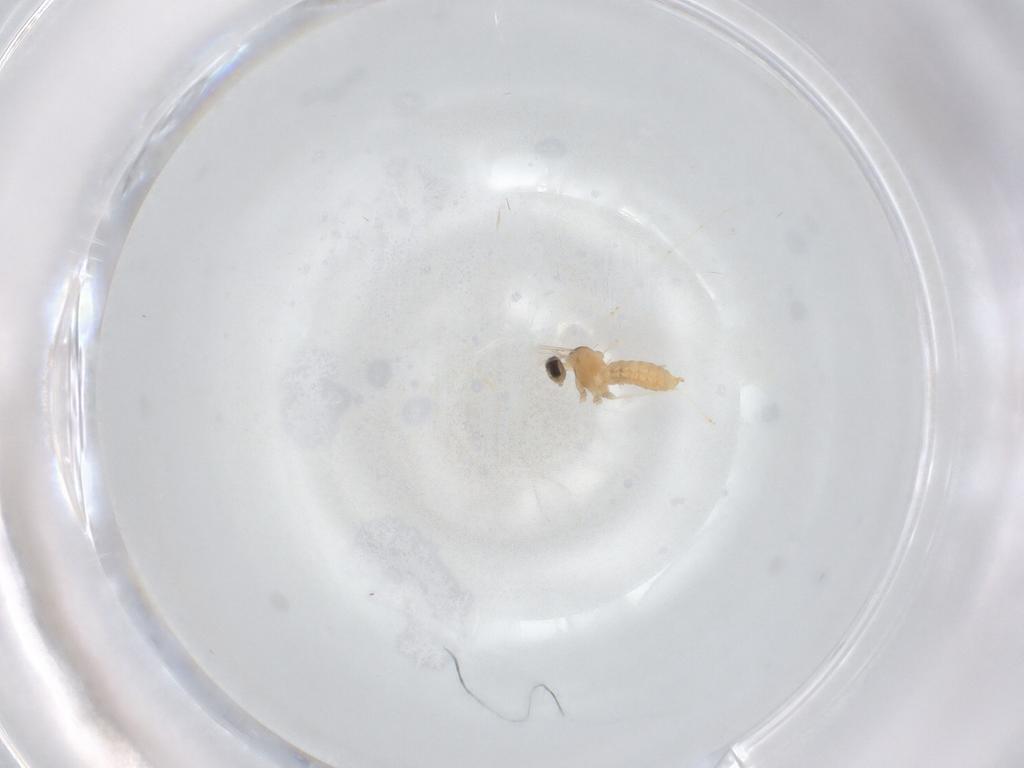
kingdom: Animalia
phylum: Arthropoda
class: Insecta
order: Diptera
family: Cecidomyiidae
